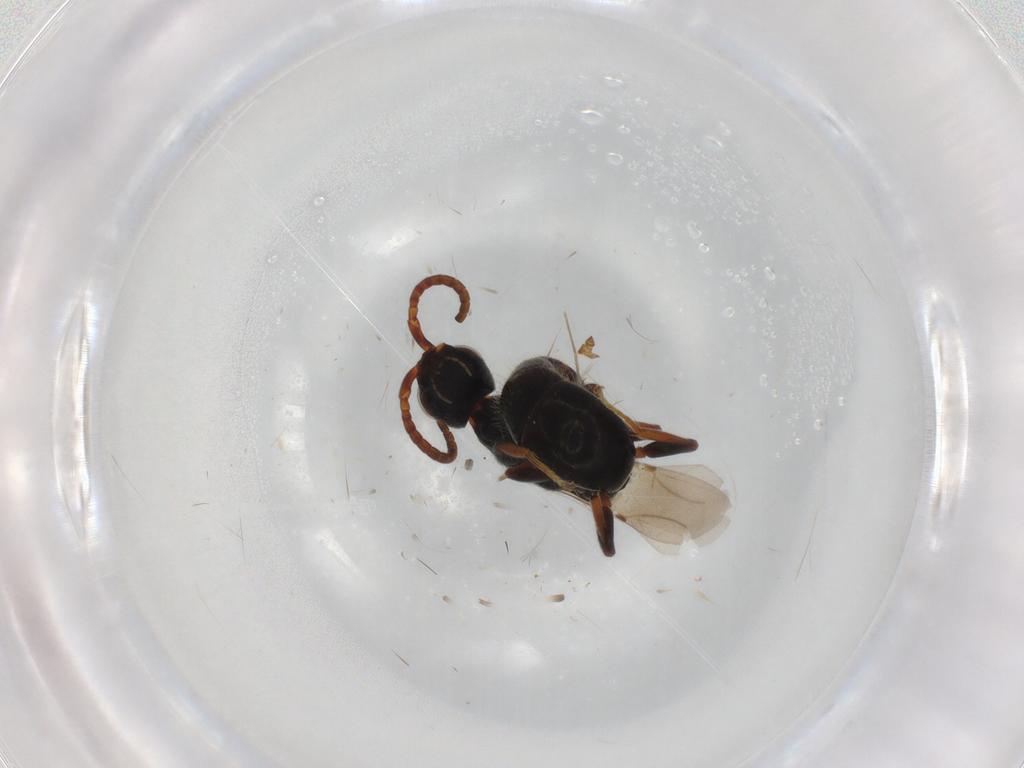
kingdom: Animalia
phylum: Arthropoda
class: Insecta
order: Hymenoptera
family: Bethylidae
